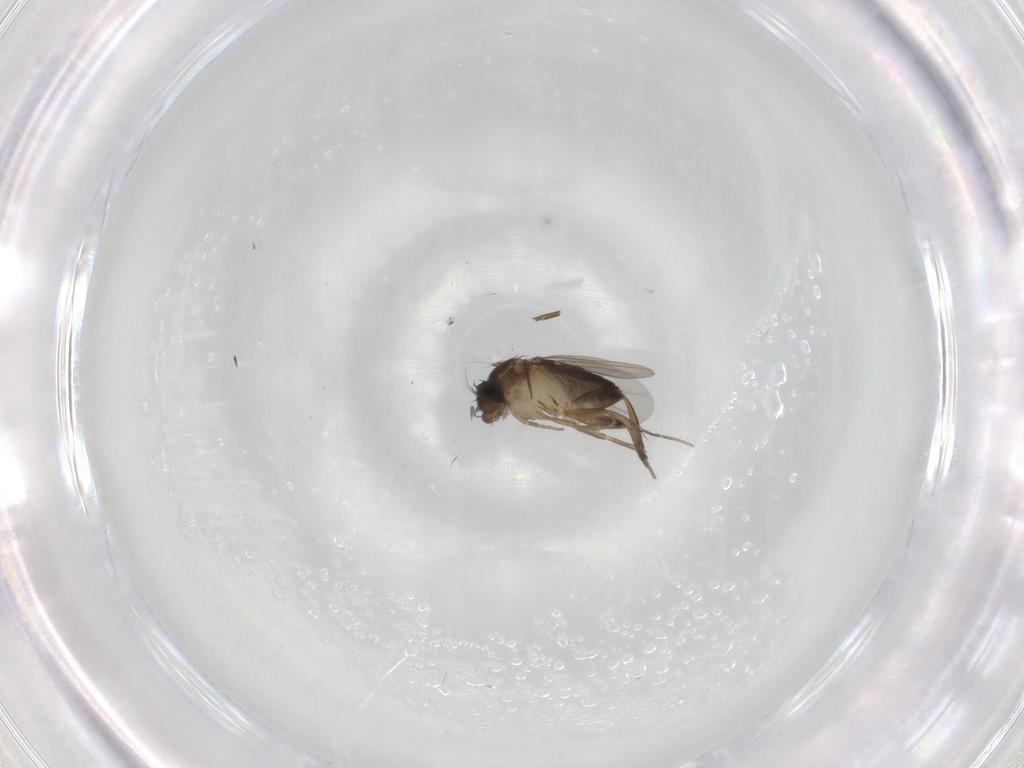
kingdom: Animalia
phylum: Arthropoda
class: Insecta
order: Diptera
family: Phoridae
